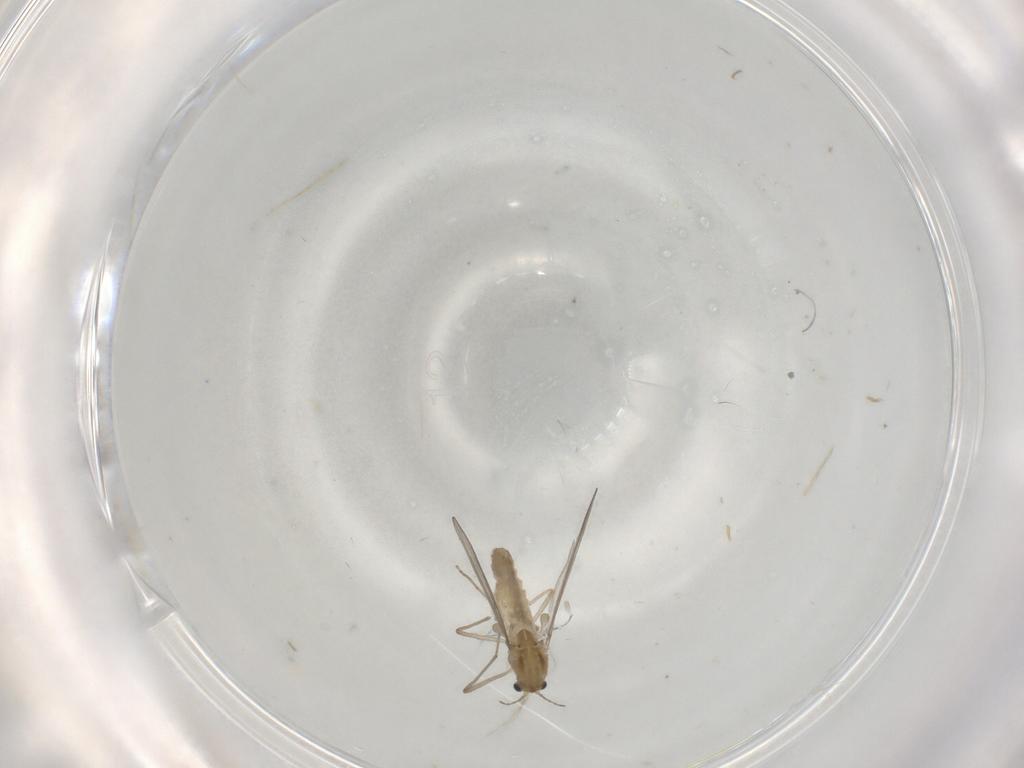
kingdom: Animalia
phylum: Arthropoda
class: Insecta
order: Diptera
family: Chironomidae
